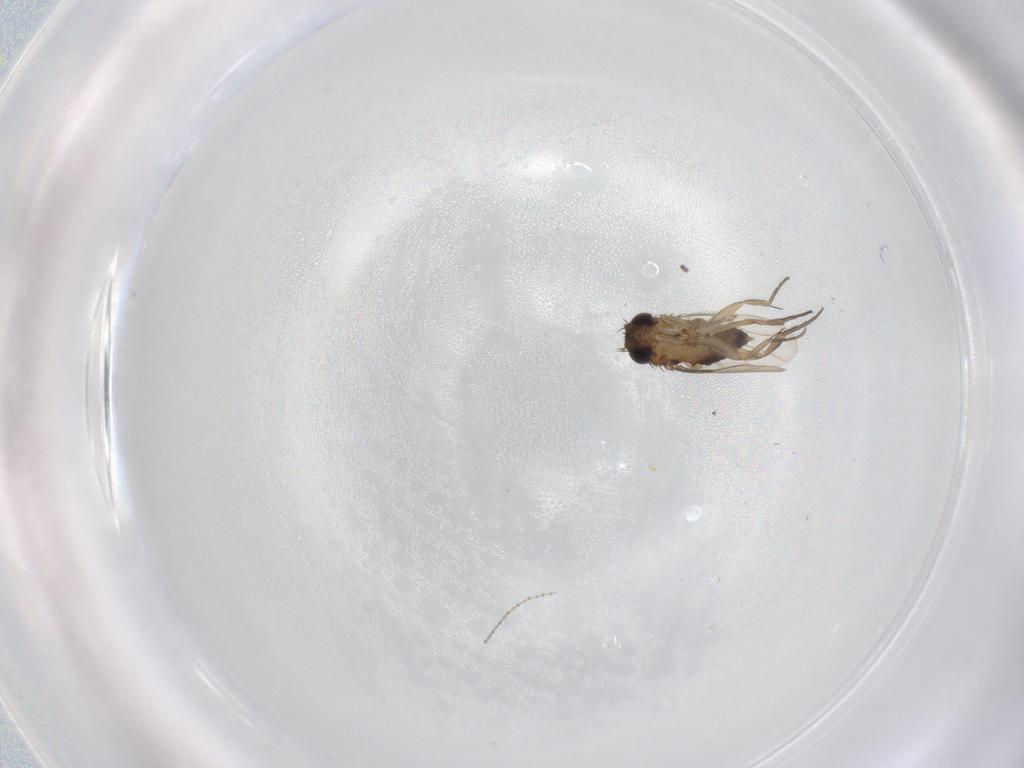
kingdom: Animalia
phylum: Arthropoda
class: Insecta
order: Diptera
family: Phoridae
